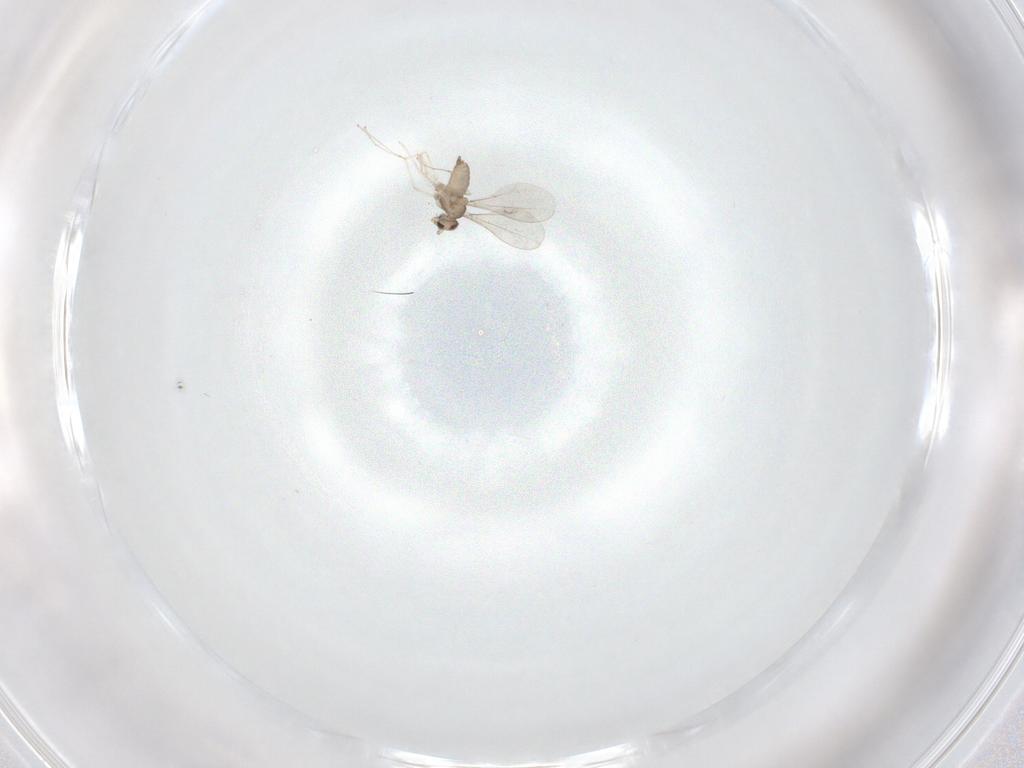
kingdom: Animalia
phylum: Arthropoda
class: Insecta
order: Diptera
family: Cecidomyiidae
